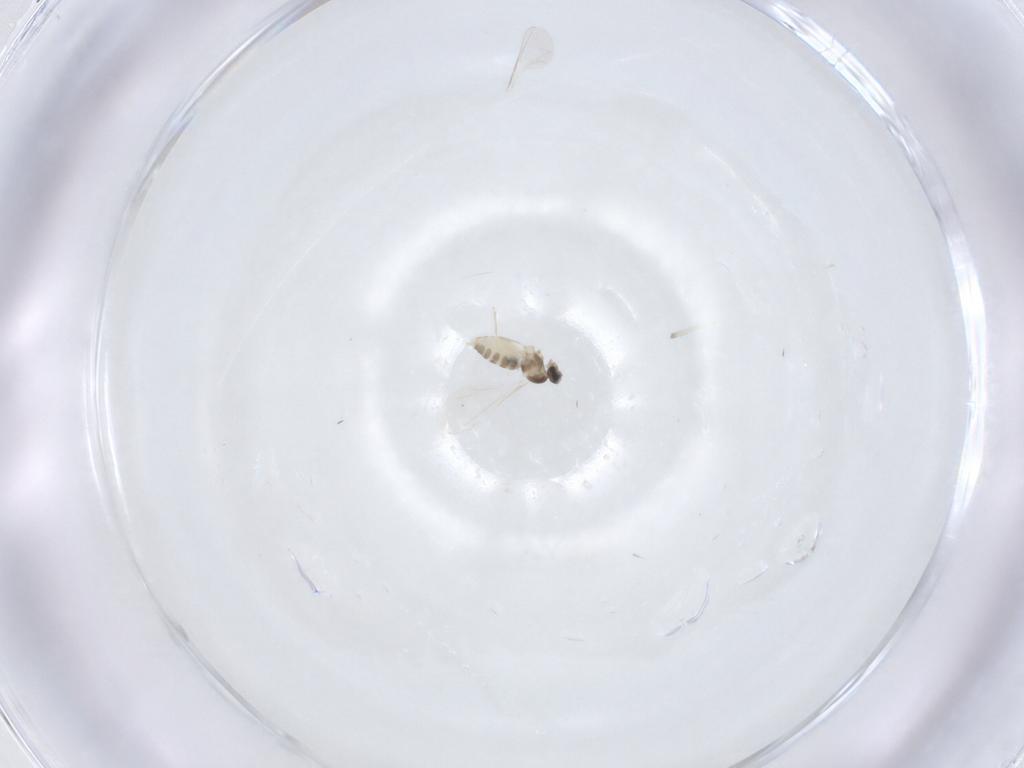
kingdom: Animalia
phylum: Arthropoda
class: Insecta
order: Diptera
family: Cecidomyiidae
